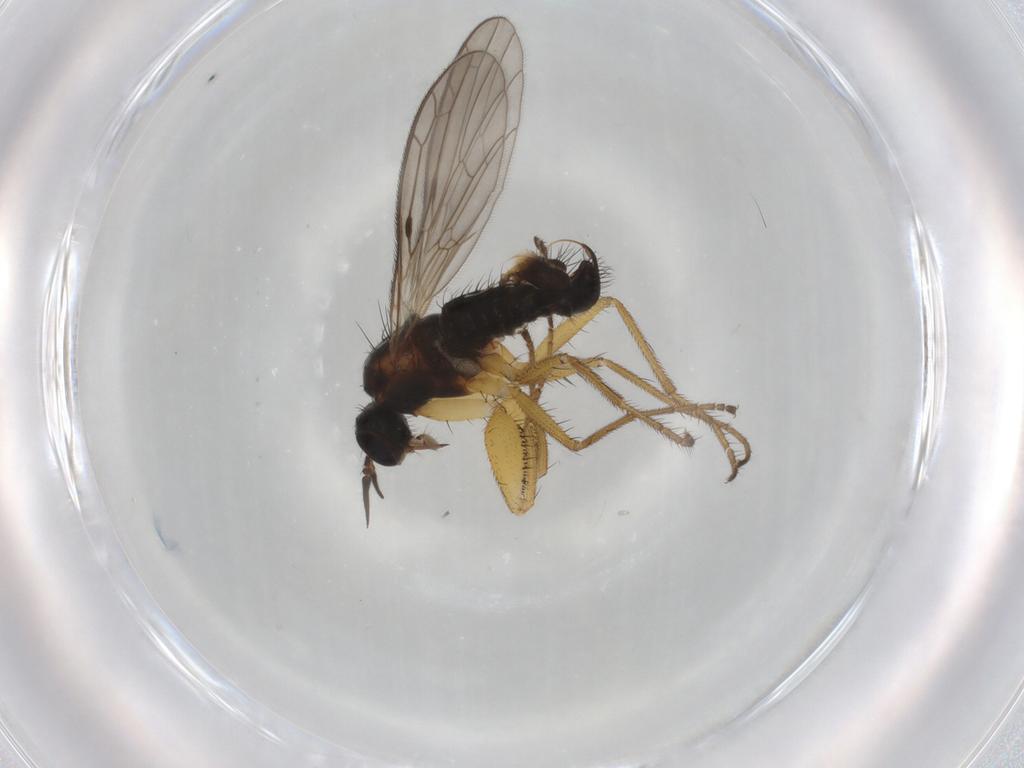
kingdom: Animalia
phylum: Arthropoda
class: Insecta
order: Diptera
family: Empididae
